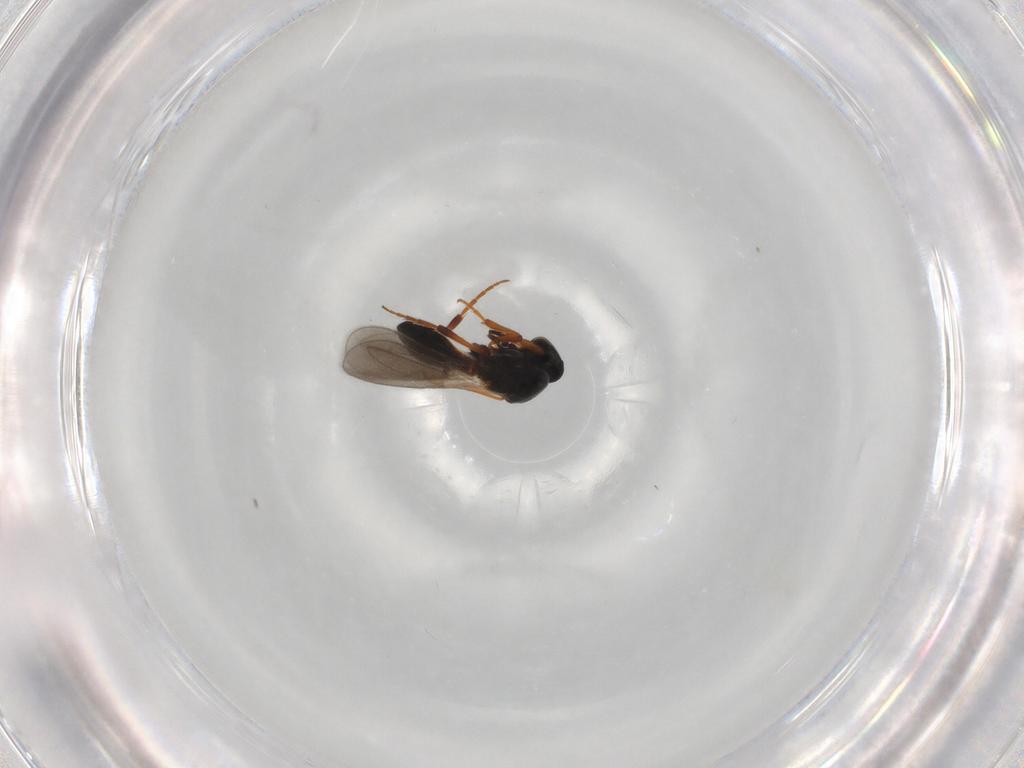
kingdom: Animalia
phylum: Arthropoda
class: Insecta
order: Hymenoptera
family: Platygastridae
